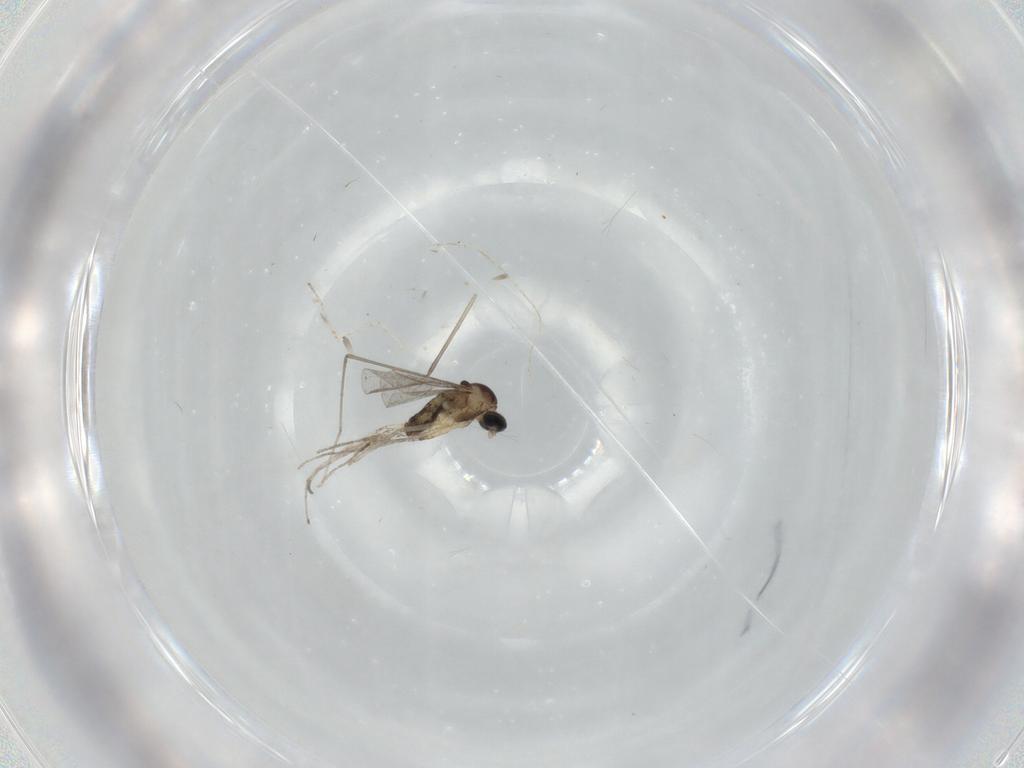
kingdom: Animalia
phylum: Arthropoda
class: Insecta
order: Diptera
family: Cecidomyiidae
